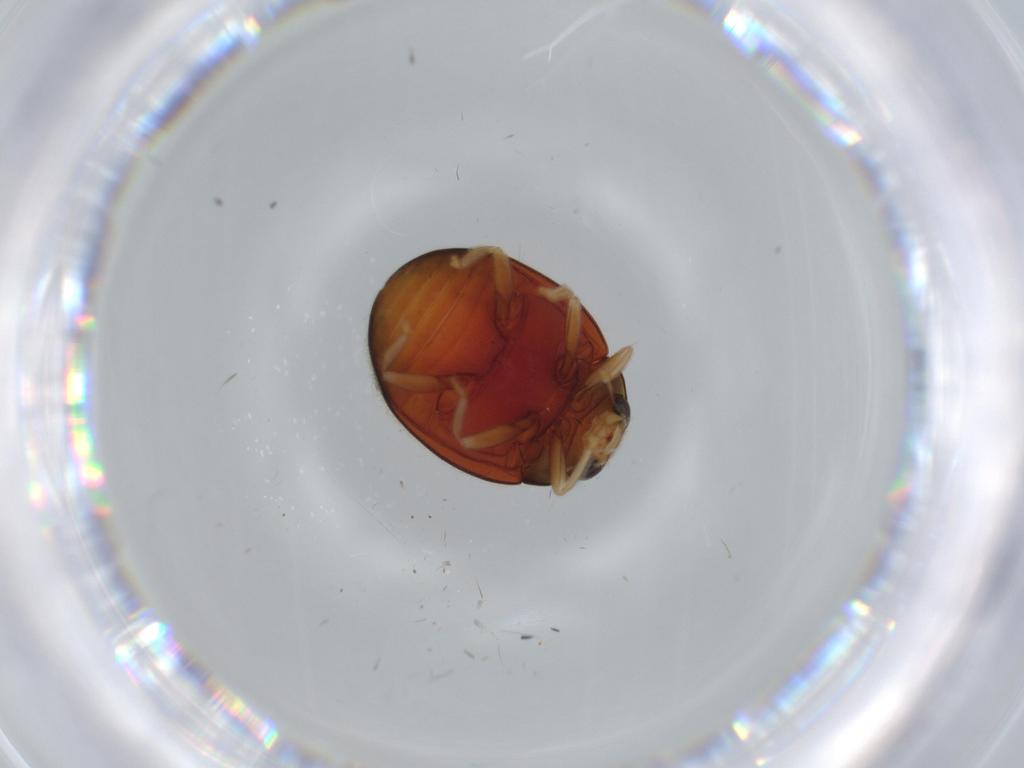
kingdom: Animalia
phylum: Arthropoda
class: Insecta
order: Coleoptera
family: Coccinellidae
